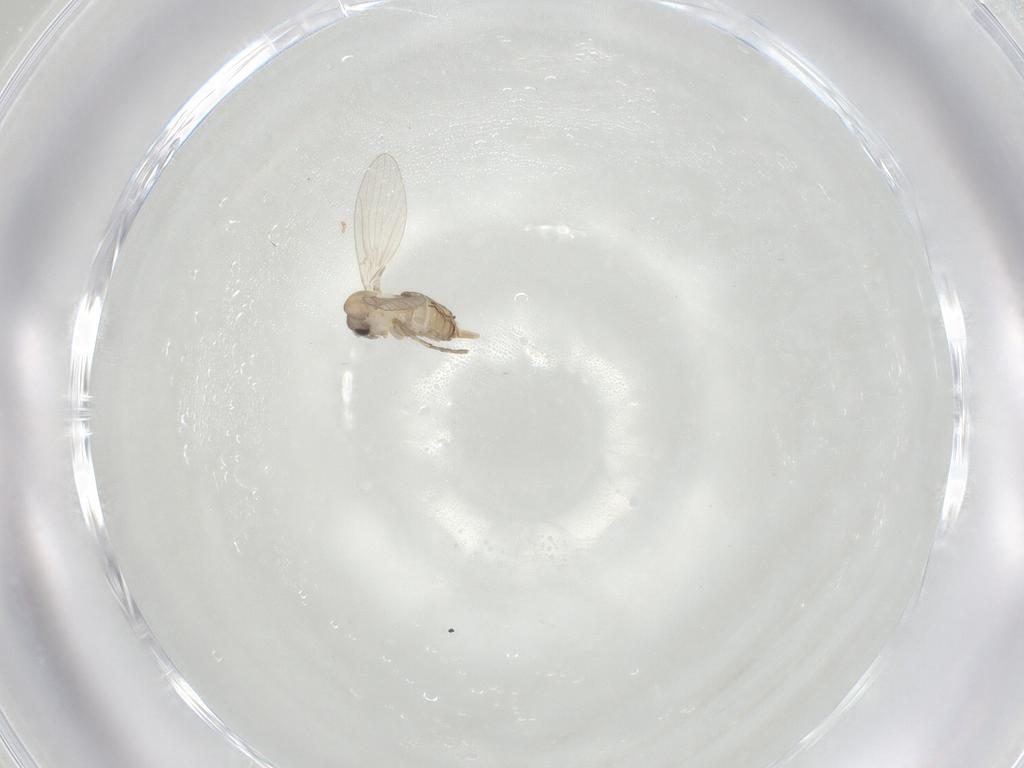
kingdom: Animalia
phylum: Arthropoda
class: Insecta
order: Diptera
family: Psychodidae
